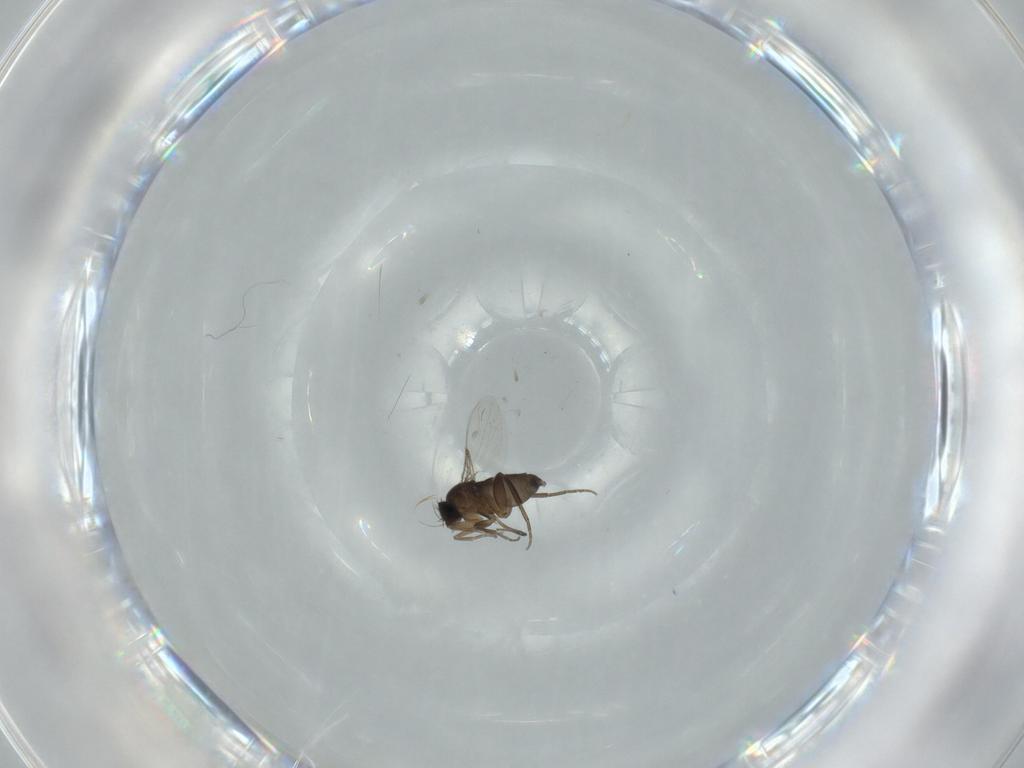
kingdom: Animalia
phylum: Arthropoda
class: Insecta
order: Diptera
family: Phoridae
